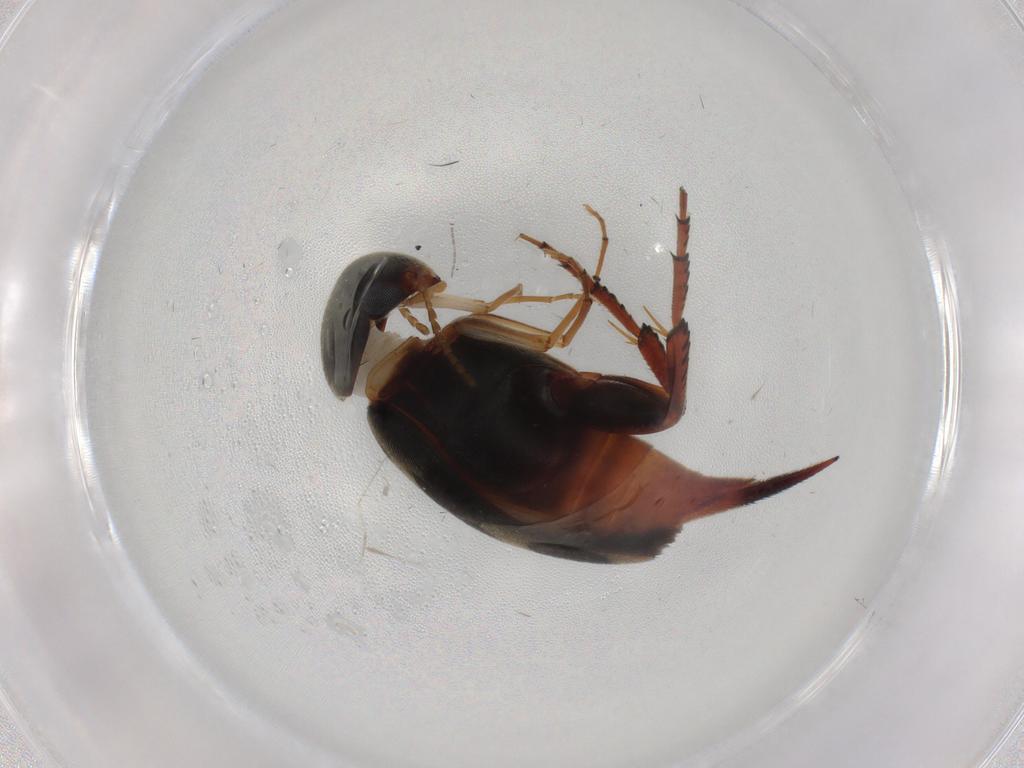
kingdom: Animalia
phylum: Arthropoda
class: Insecta
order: Coleoptera
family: Mordellidae
